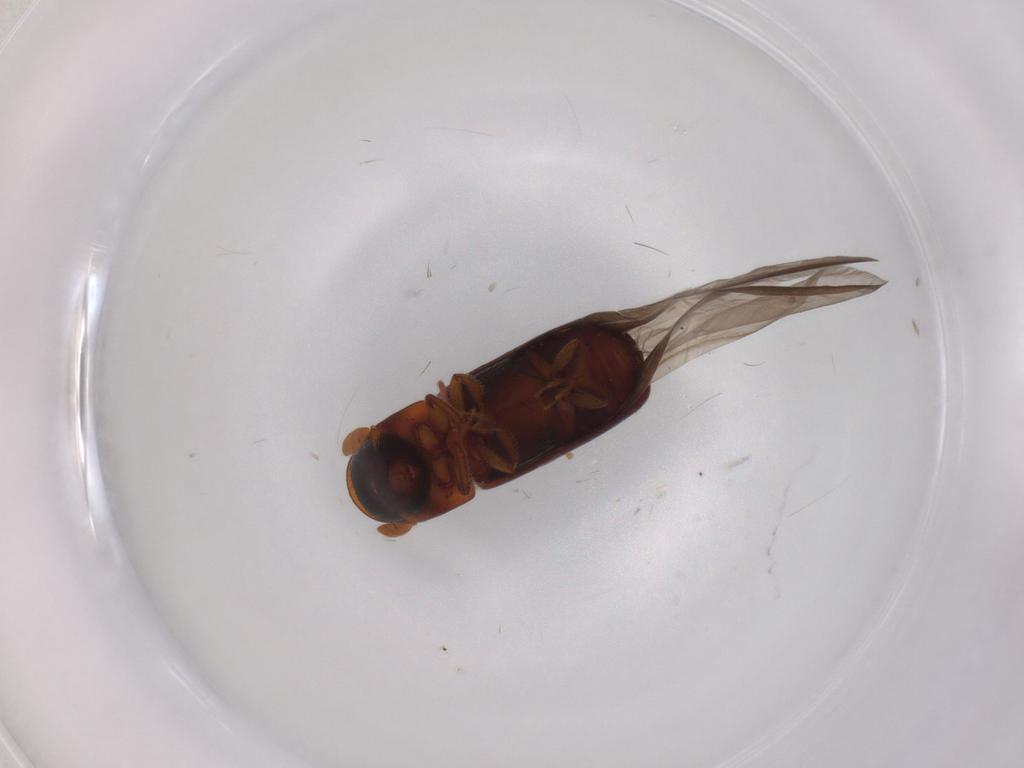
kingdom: Animalia
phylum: Arthropoda
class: Insecta
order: Coleoptera
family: Curculionidae
